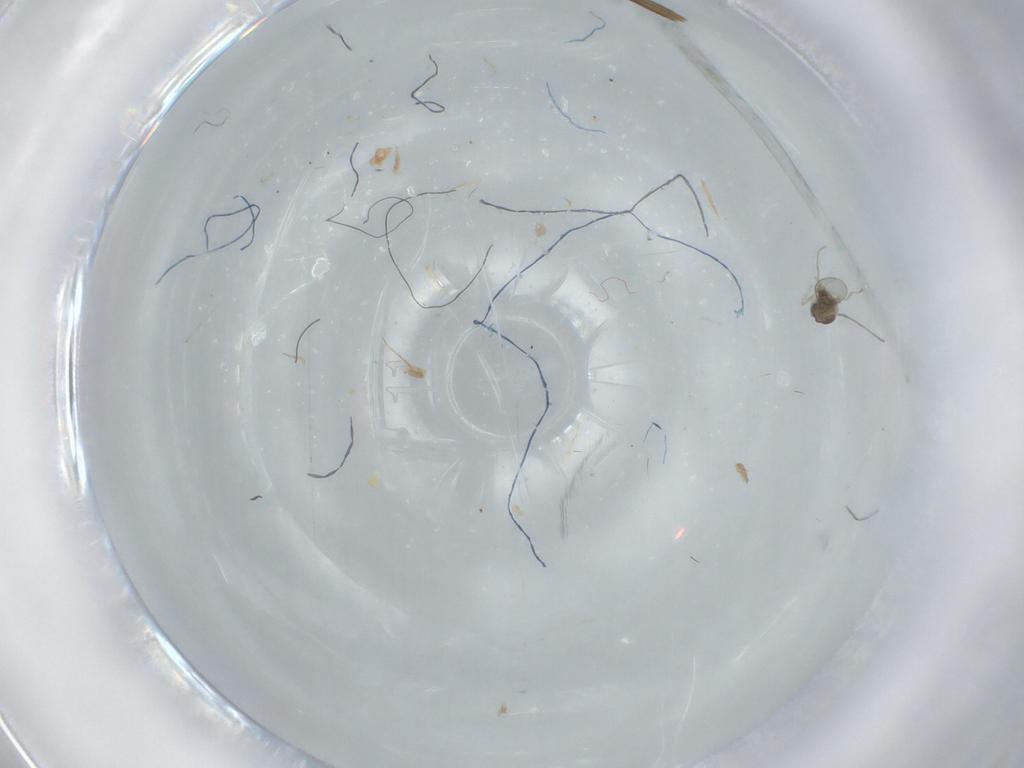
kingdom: Animalia
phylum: Arthropoda
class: Insecta
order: Diptera
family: Cecidomyiidae
